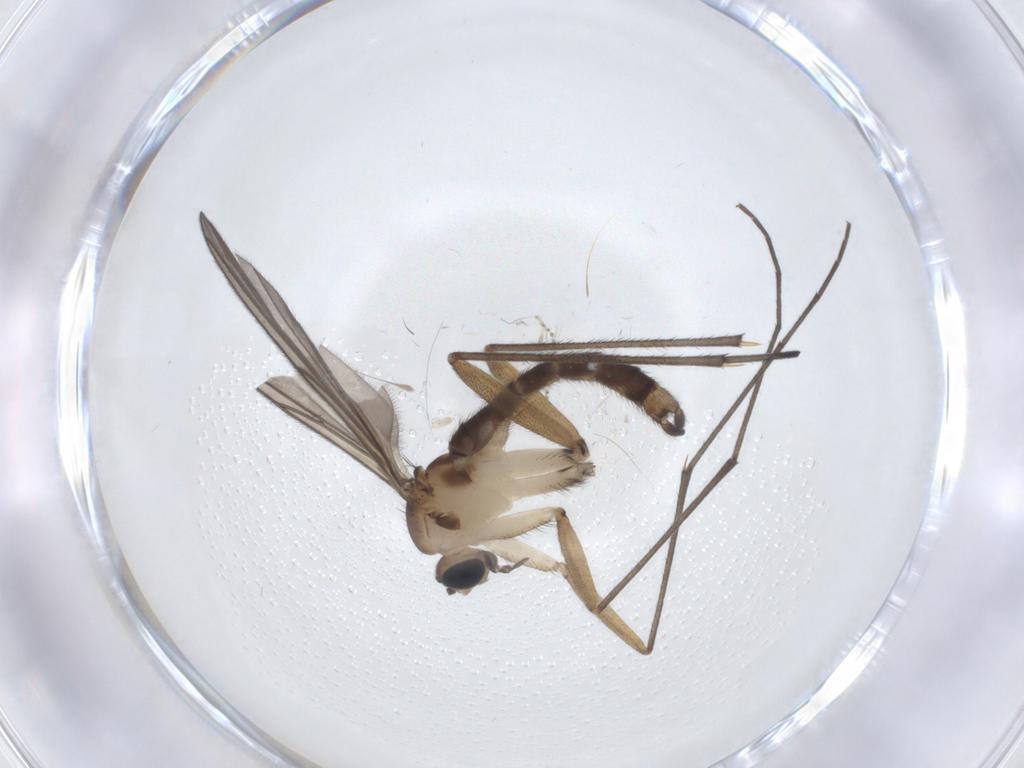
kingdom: Animalia
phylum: Arthropoda
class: Insecta
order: Diptera
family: Sciaridae
